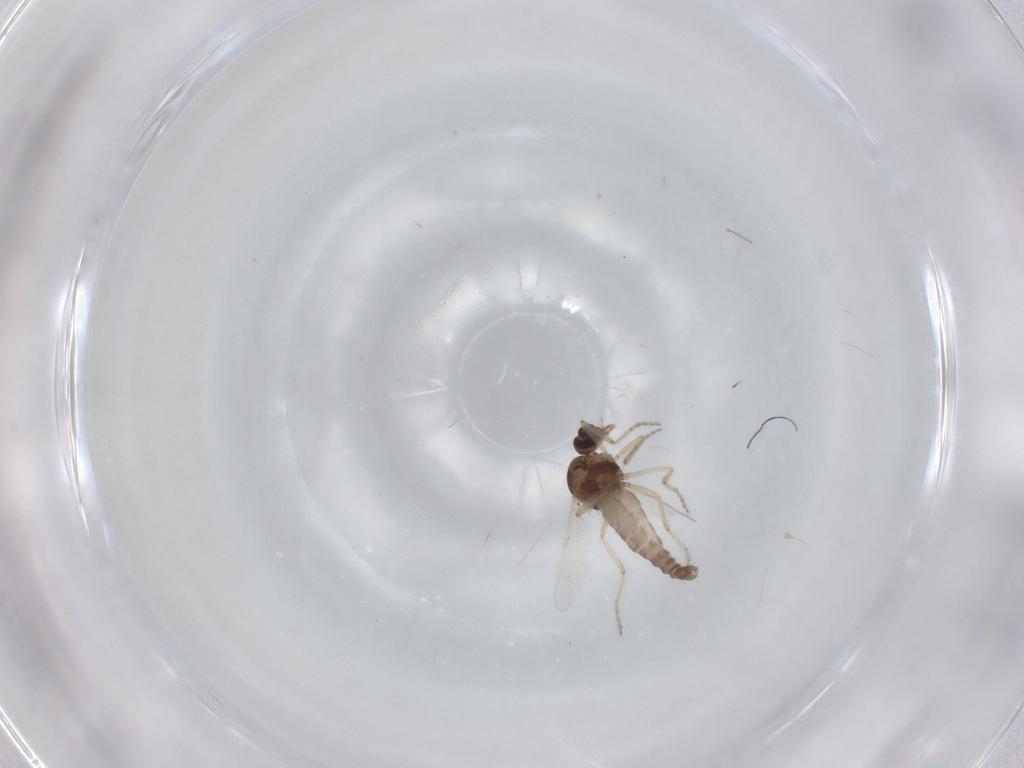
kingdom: Animalia
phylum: Arthropoda
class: Insecta
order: Diptera
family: Ceratopogonidae
